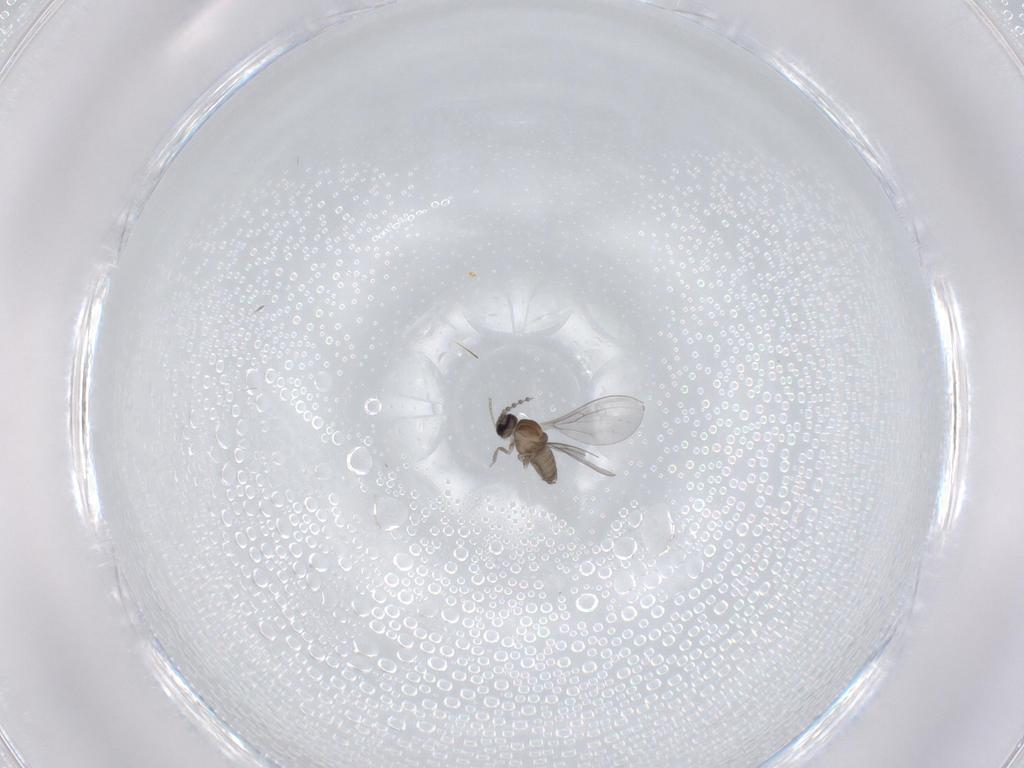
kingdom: Animalia
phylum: Arthropoda
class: Insecta
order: Diptera
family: Cecidomyiidae
